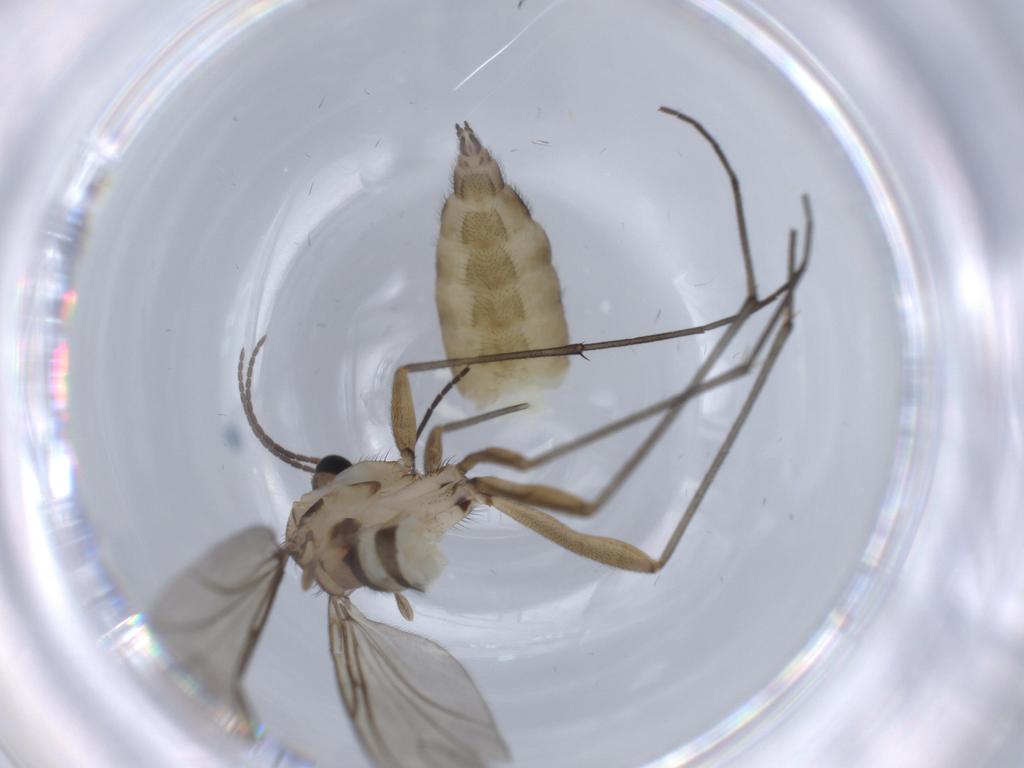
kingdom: Animalia
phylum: Arthropoda
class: Insecta
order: Diptera
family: Sciaridae
